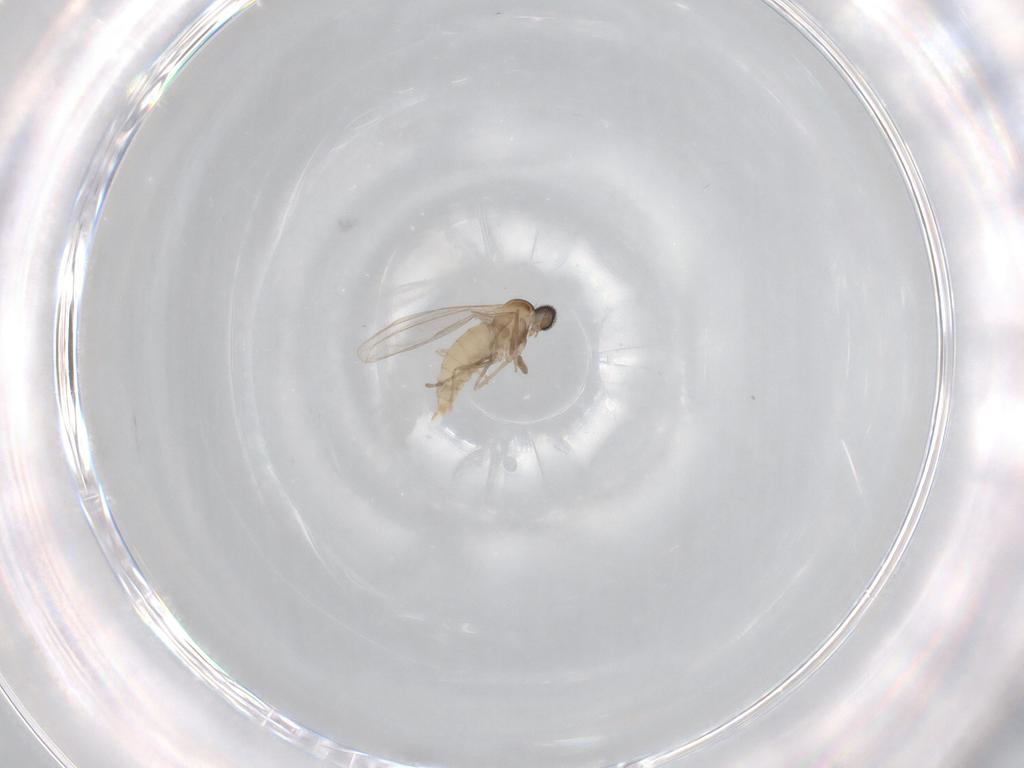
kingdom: Animalia
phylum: Arthropoda
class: Insecta
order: Diptera
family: Cecidomyiidae
